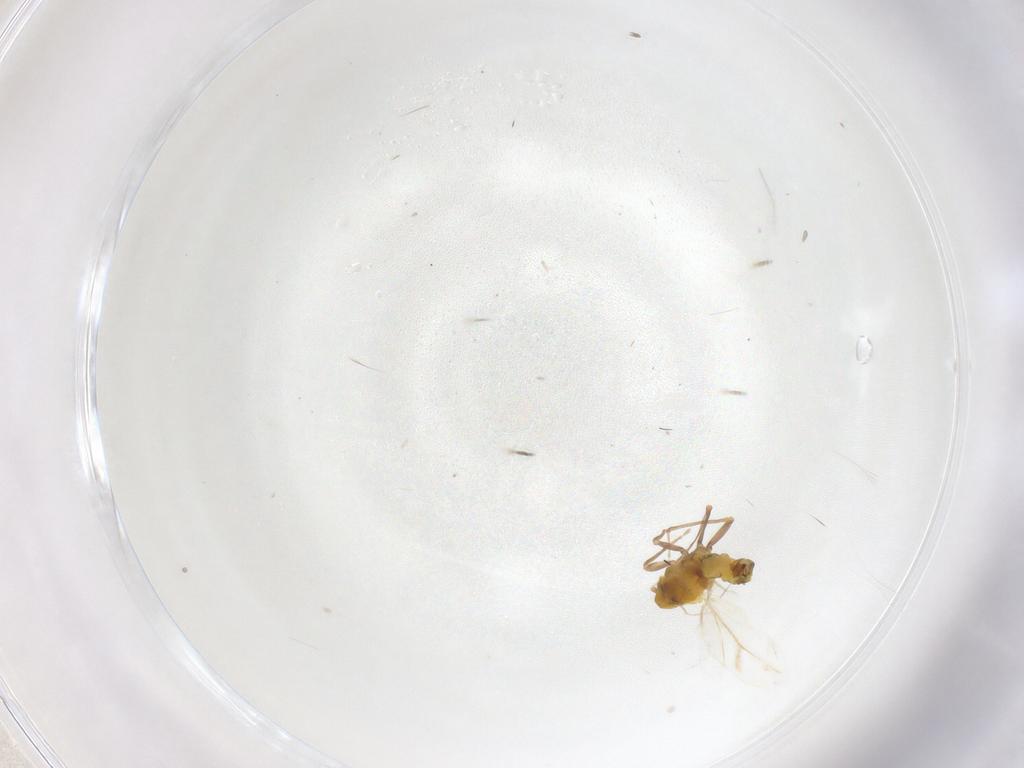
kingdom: Animalia
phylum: Arthropoda
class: Insecta
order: Hemiptera
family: Aleyrodidae
